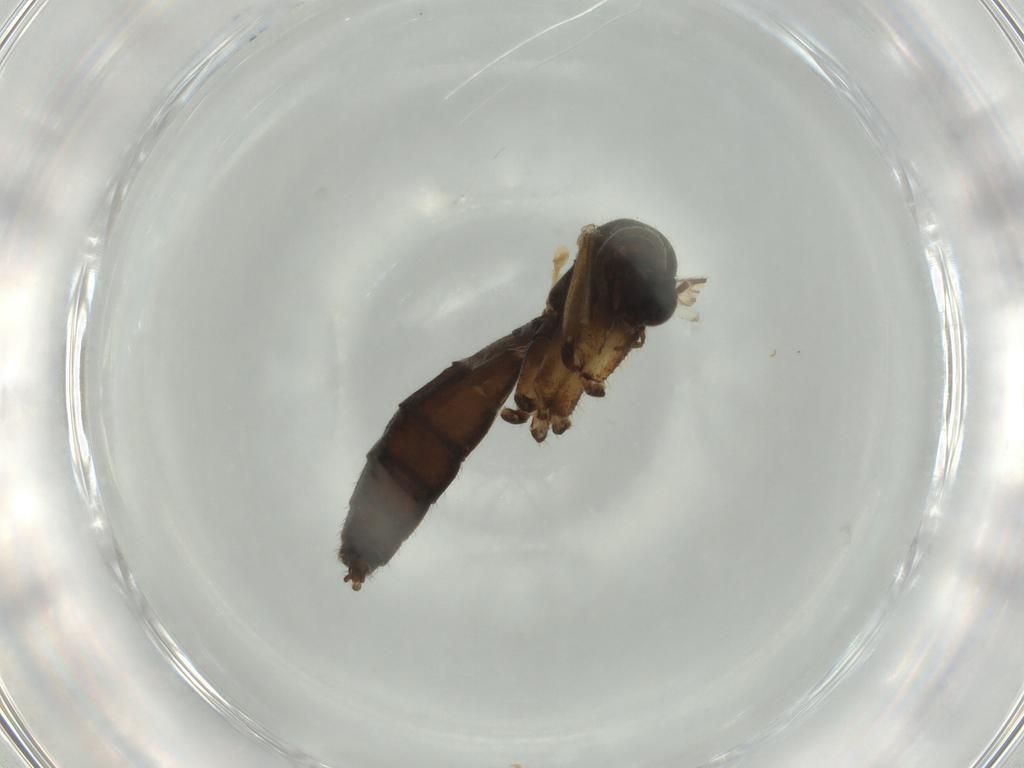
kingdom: Animalia
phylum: Arthropoda
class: Insecta
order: Diptera
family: Mycetophilidae
